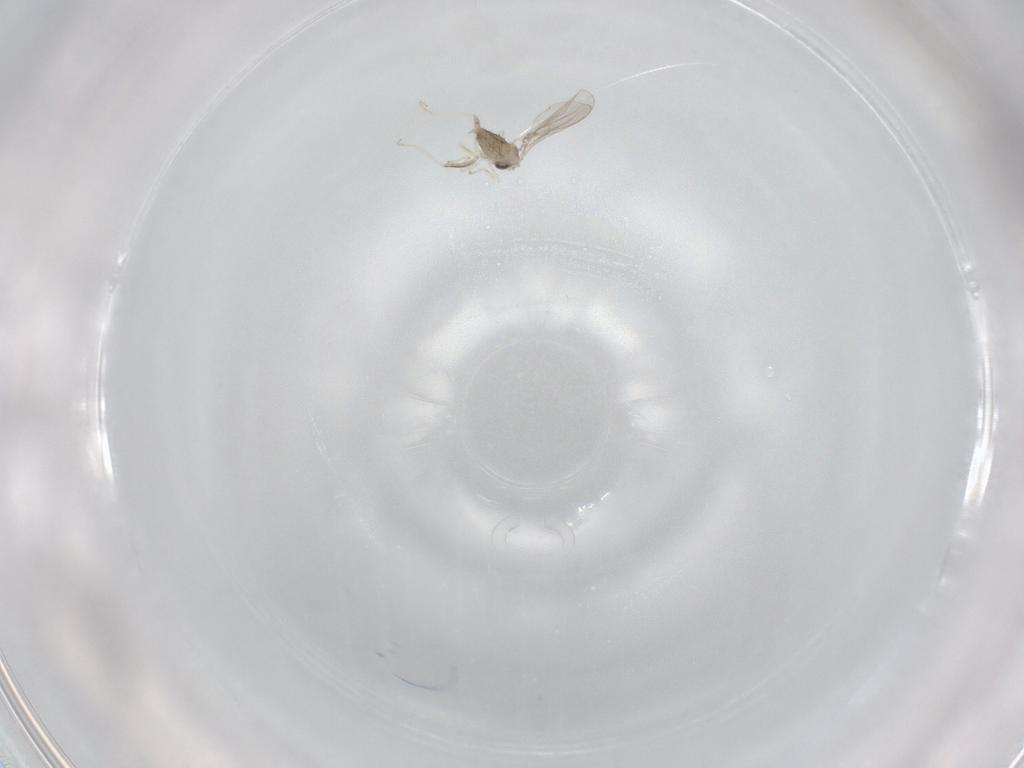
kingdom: Animalia
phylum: Arthropoda
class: Insecta
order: Diptera
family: Cecidomyiidae
